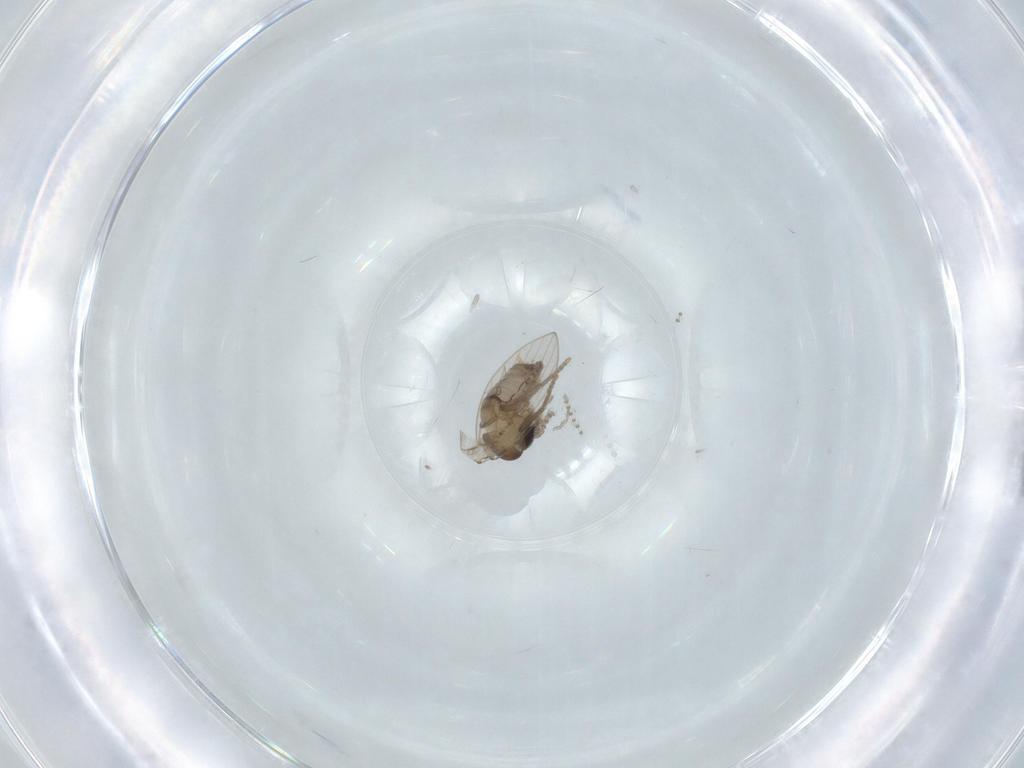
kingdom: Animalia
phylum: Arthropoda
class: Insecta
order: Diptera
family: Psychodidae
